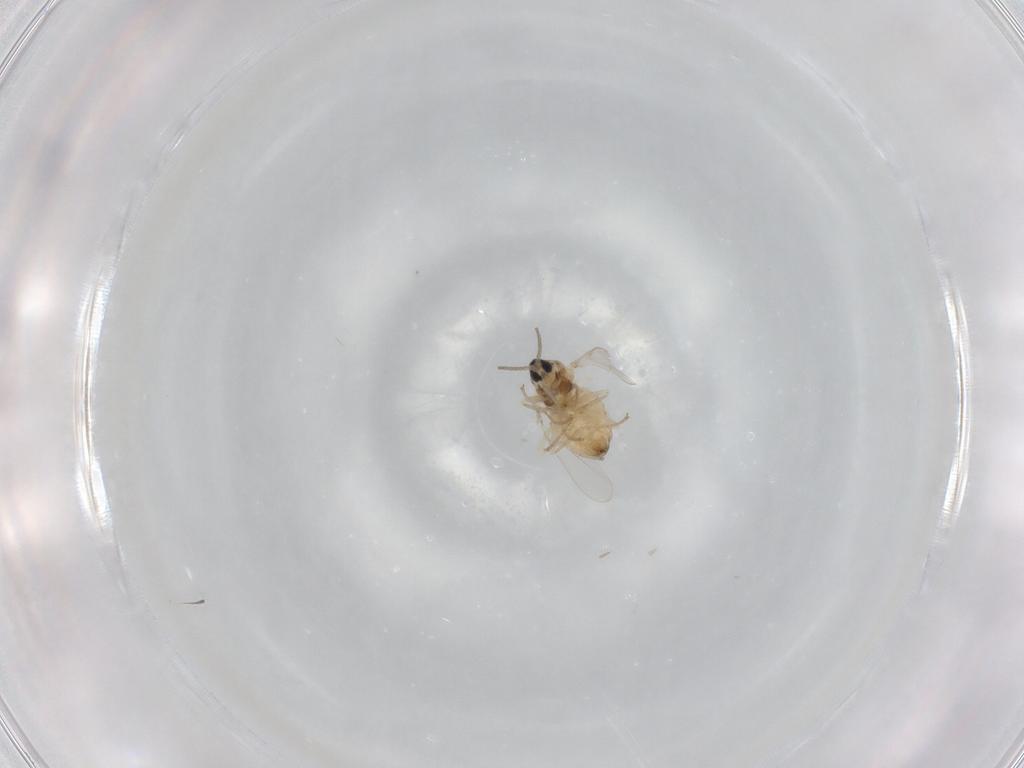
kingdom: Animalia
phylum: Arthropoda
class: Insecta
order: Diptera
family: Cecidomyiidae
